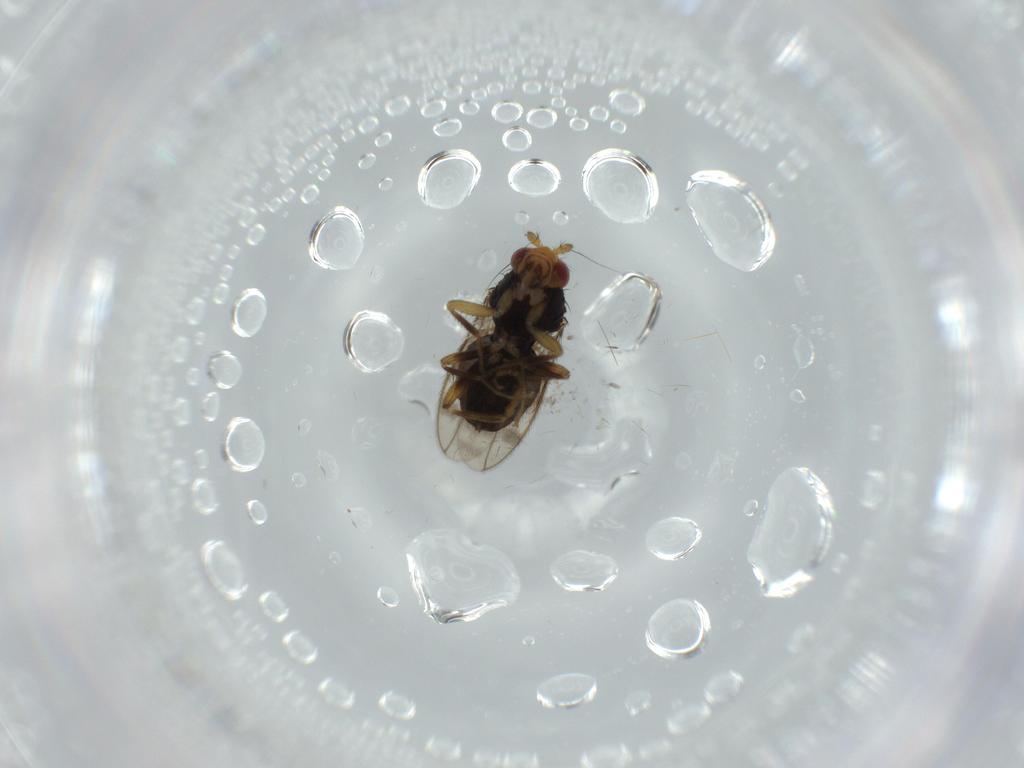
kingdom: Animalia
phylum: Arthropoda
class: Insecta
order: Diptera
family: Sphaeroceridae
